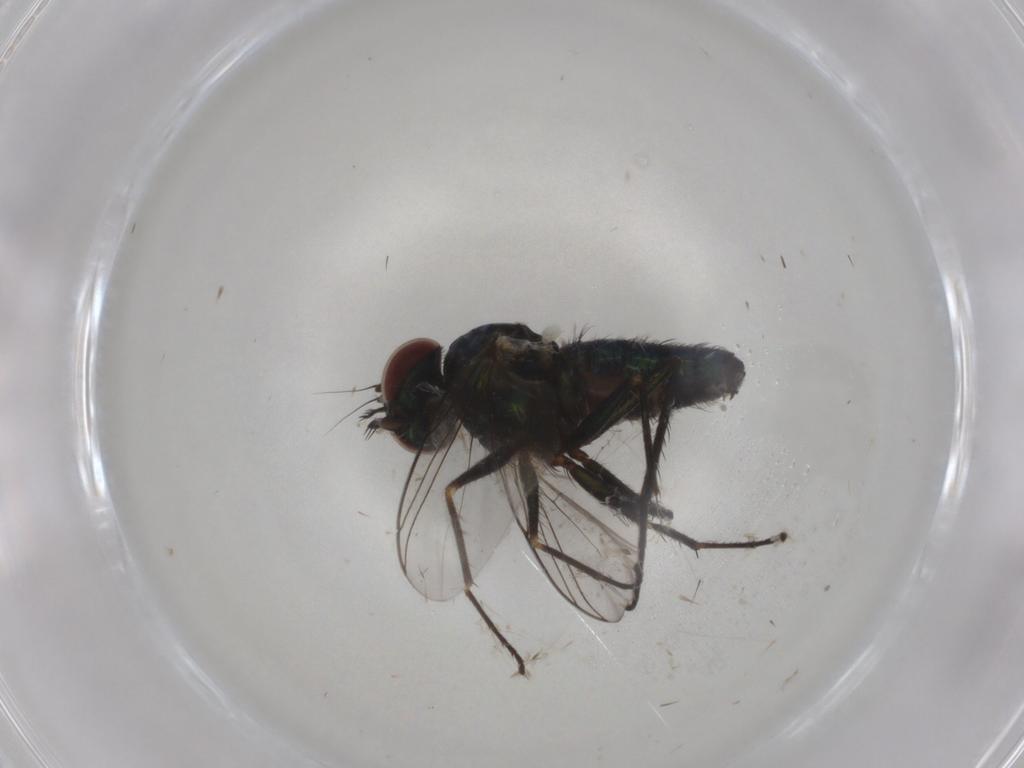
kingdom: Animalia
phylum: Arthropoda
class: Insecta
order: Diptera
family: Dolichopodidae
